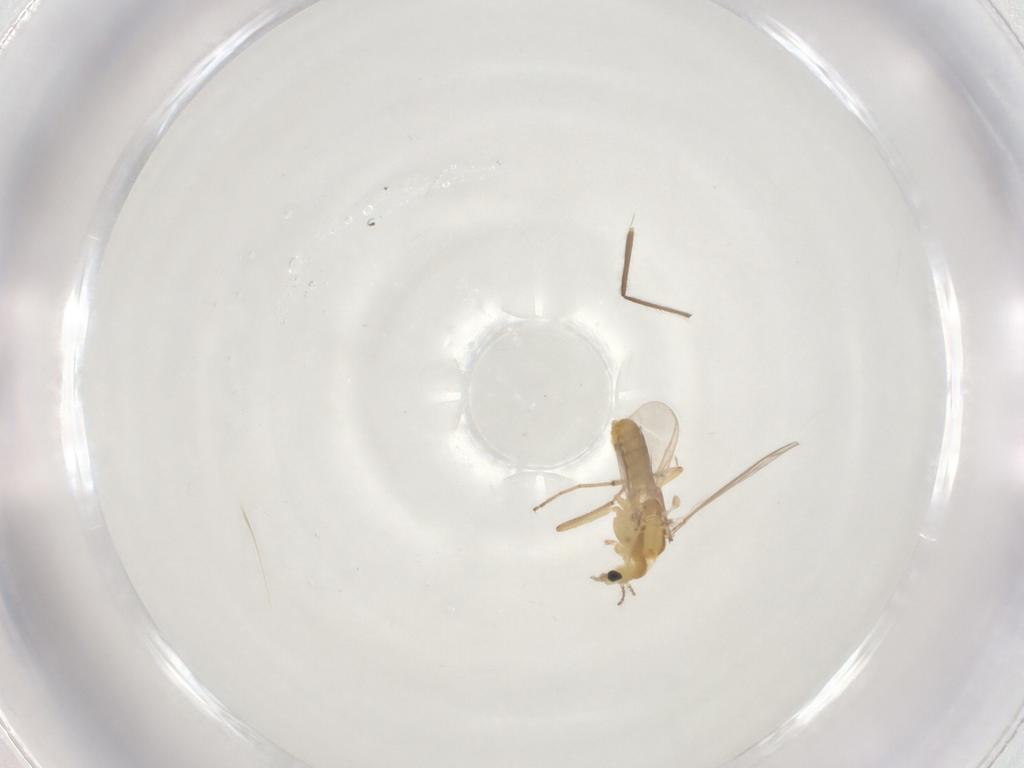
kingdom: Animalia
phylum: Arthropoda
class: Insecta
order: Diptera
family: Chironomidae
